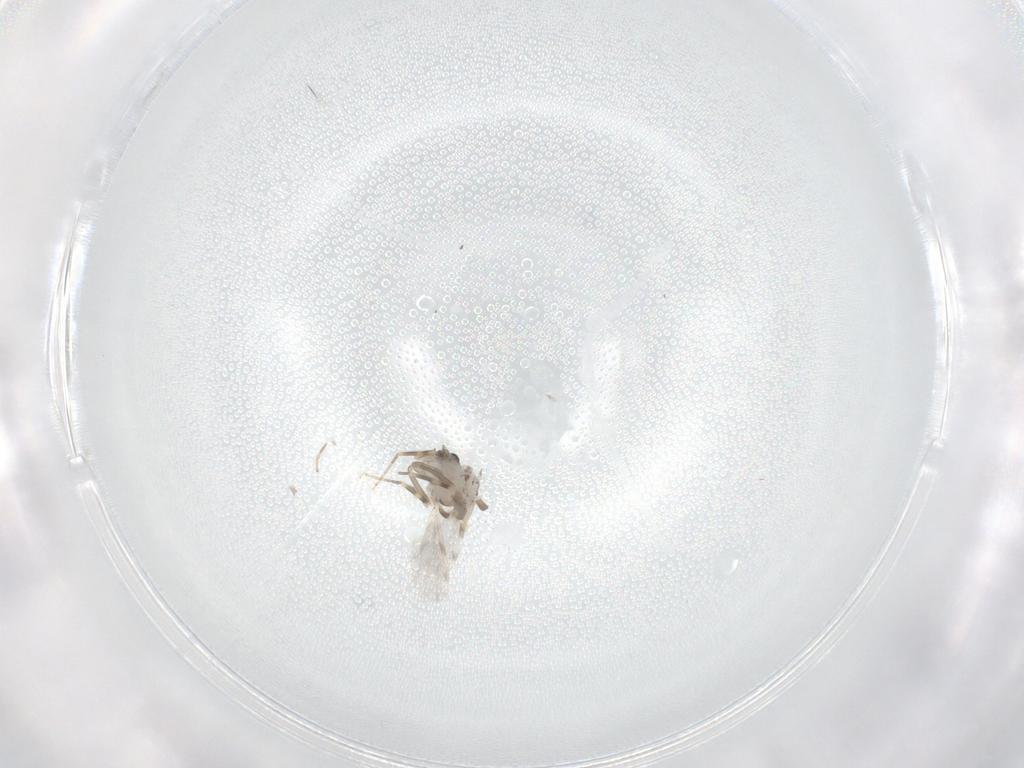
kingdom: Animalia
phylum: Arthropoda
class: Insecta
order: Diptera
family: Ceratopogonidae
